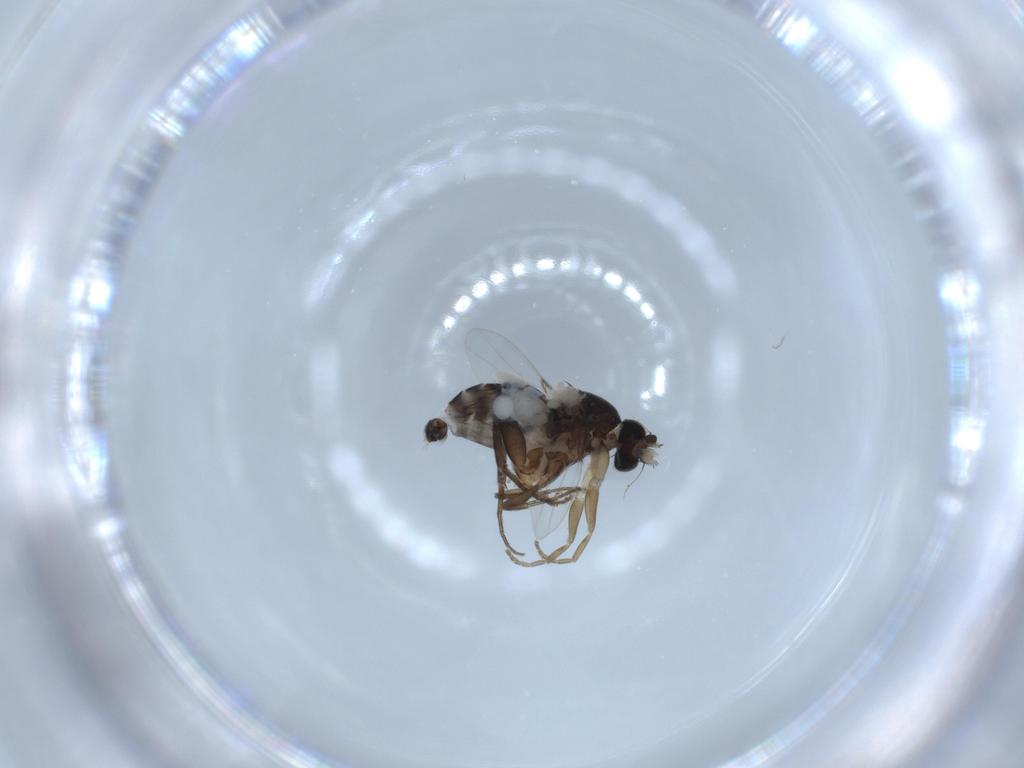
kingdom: Animalia
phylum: Arthropoda
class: Insecta
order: Diptera
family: Phoridae
